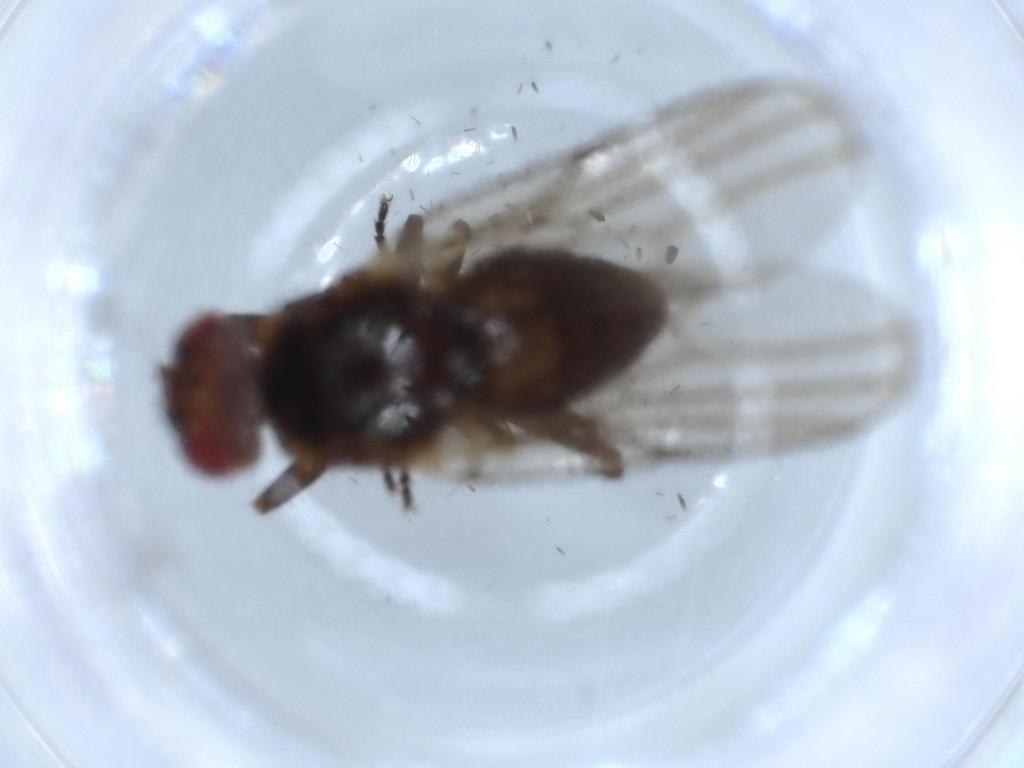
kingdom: Animalia
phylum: Arthropoda
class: Insecta
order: Diptera
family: Chloropidae
